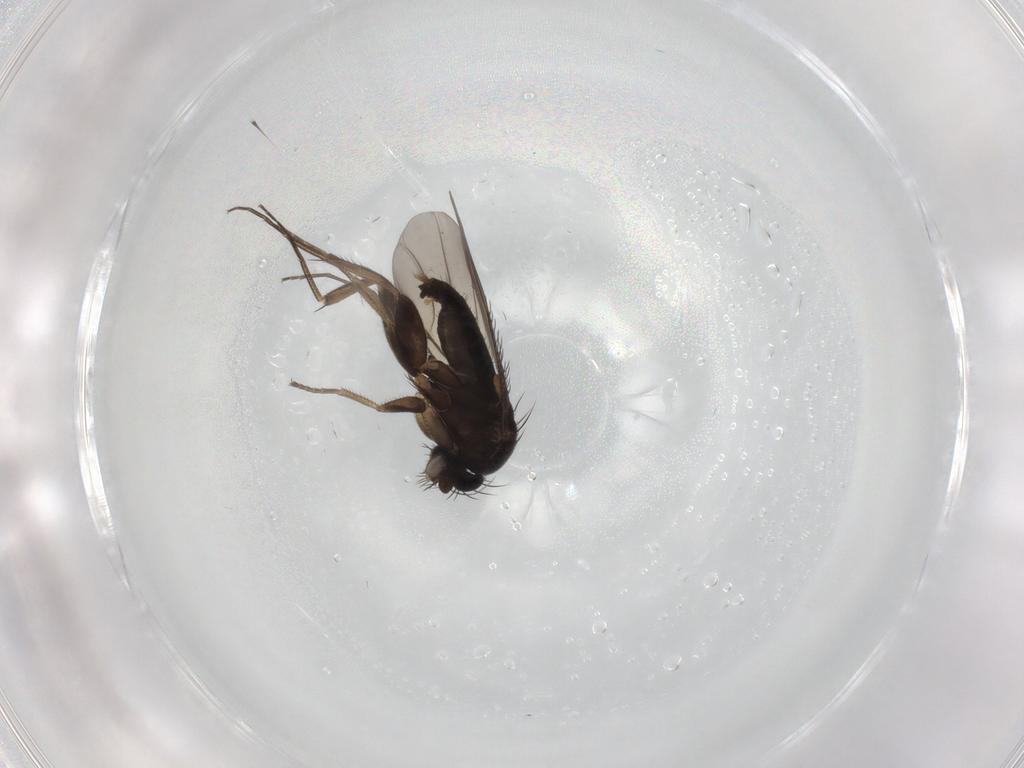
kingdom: Animalia
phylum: Arthropoda
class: Insecta
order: Diptera
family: Phoridae
